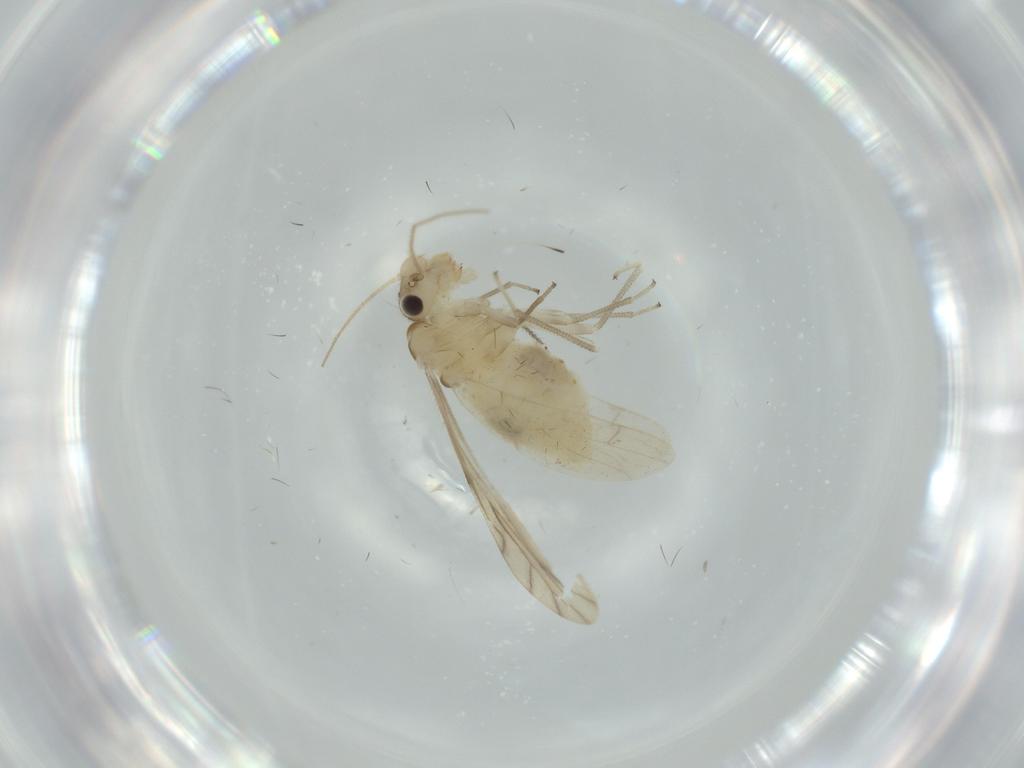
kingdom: Animalia
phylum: Arthropoda
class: Insecta
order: Psocodea
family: Caeciliusidae
